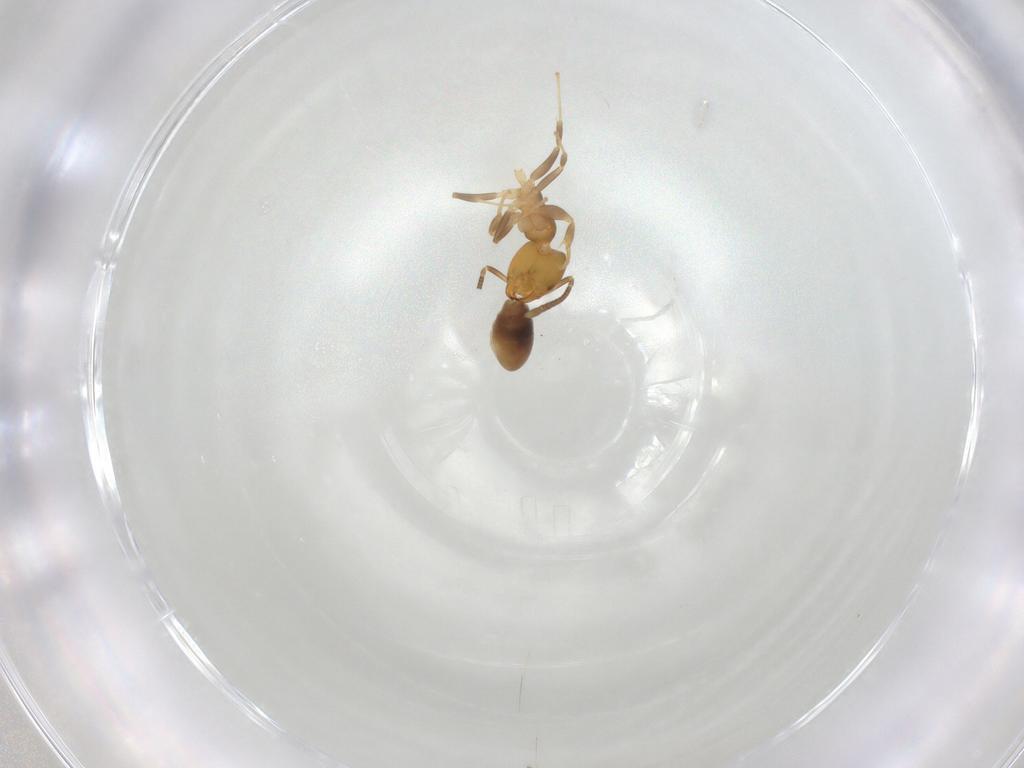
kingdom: Animalia
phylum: Arthropoda
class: Insecta
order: Hymenoptera
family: Formicidae
